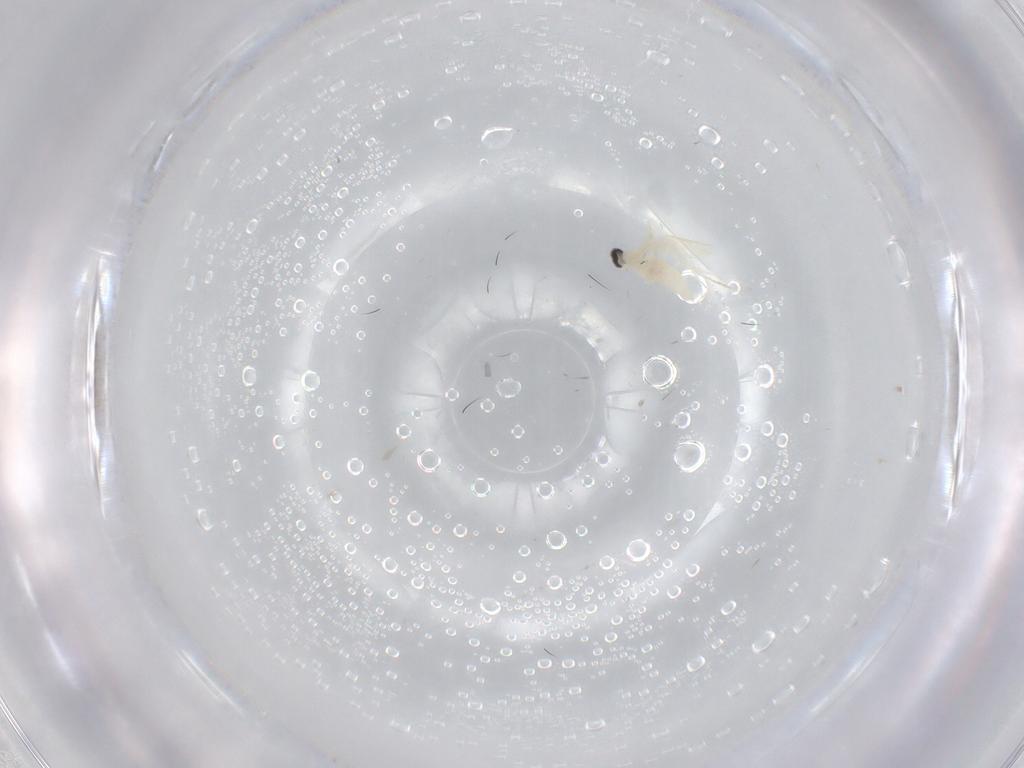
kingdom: Animalia
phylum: Arthropoda
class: Insecta
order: Diptera
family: Cecidomyiidae
